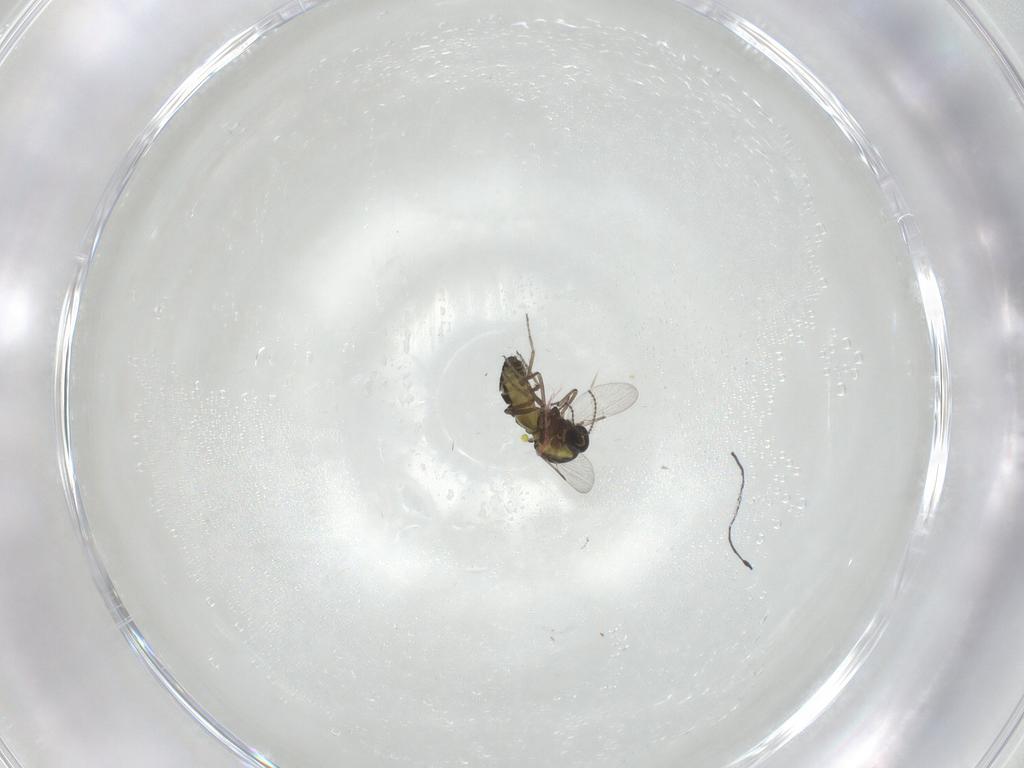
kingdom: Animalia
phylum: Arthropoda
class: Insecta
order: Diptera
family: Ceratopogonidae
